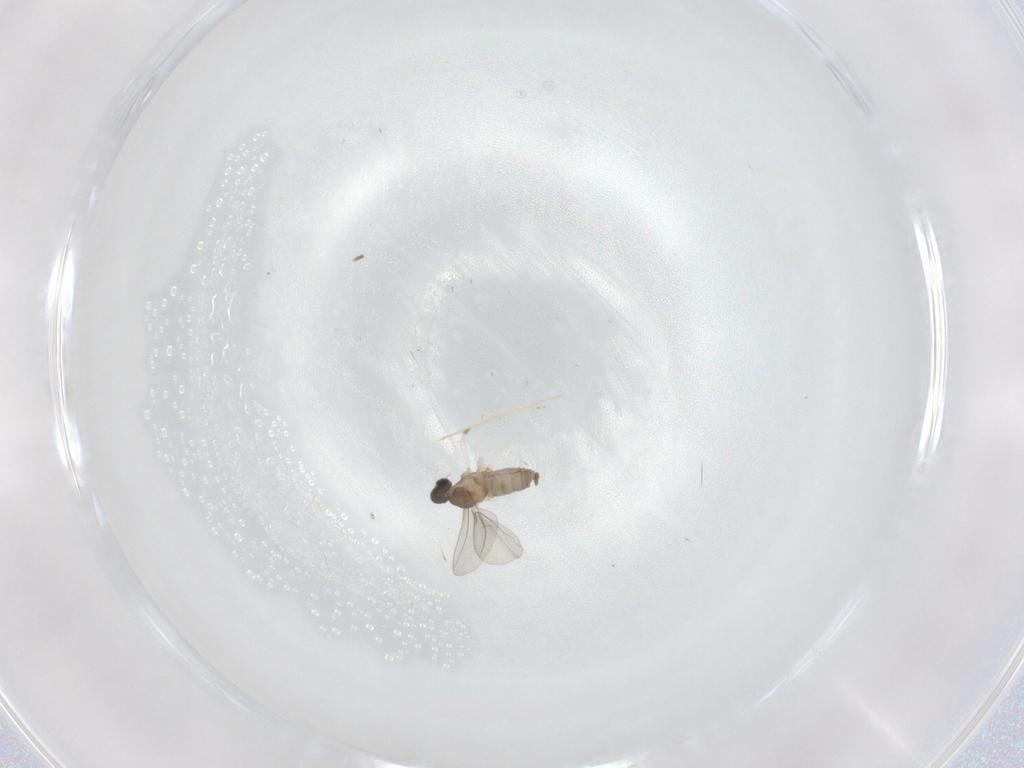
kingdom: Animalia
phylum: Arthropoda
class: Insecta
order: Diptera
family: Ceratopogonidae
